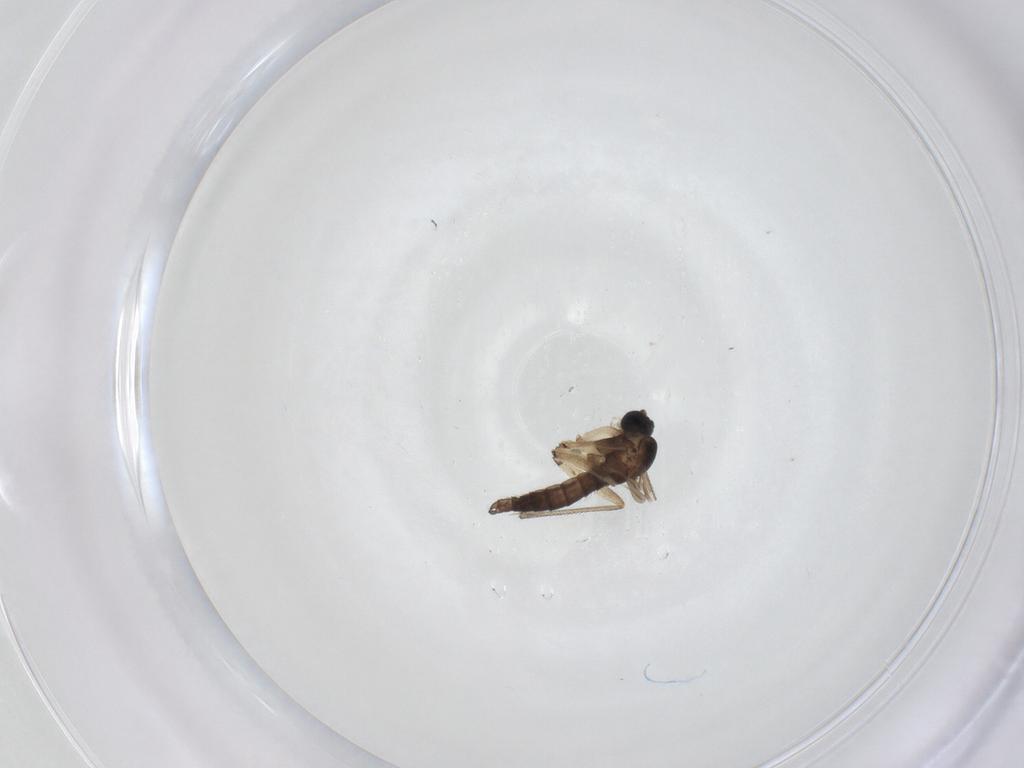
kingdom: Animalia
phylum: Arthropoda
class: Insecta
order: Diptera
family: Sciaridae
